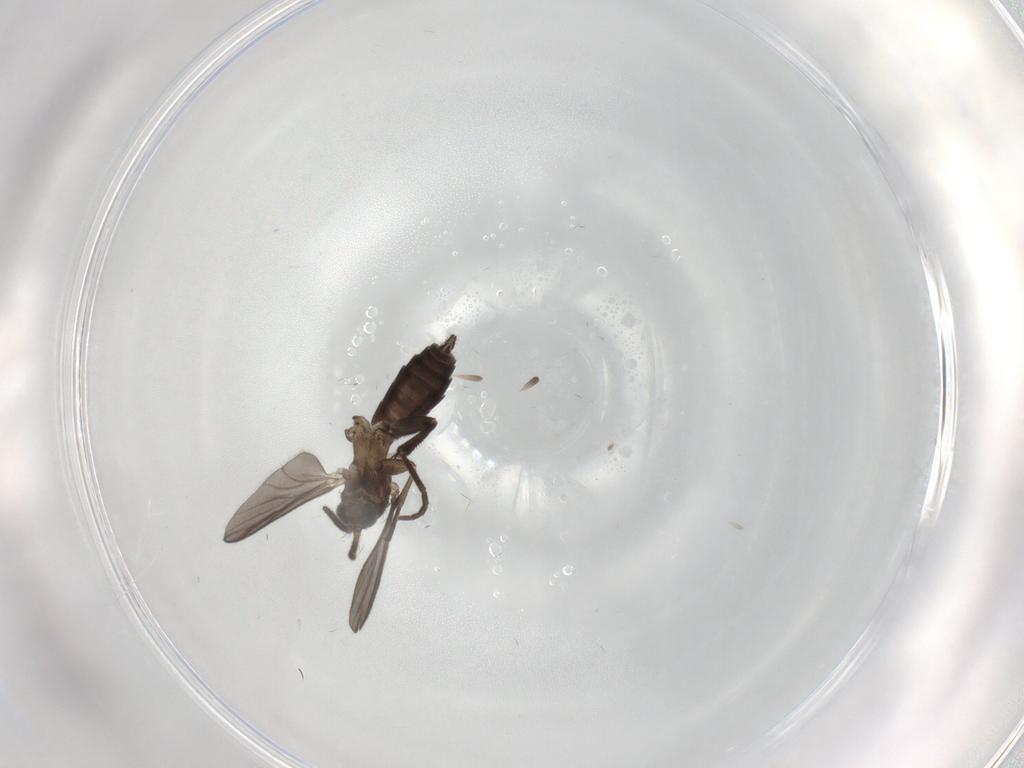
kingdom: Animalia
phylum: Arthropoda
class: Insecta
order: Diptera
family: Mycetophilidae
